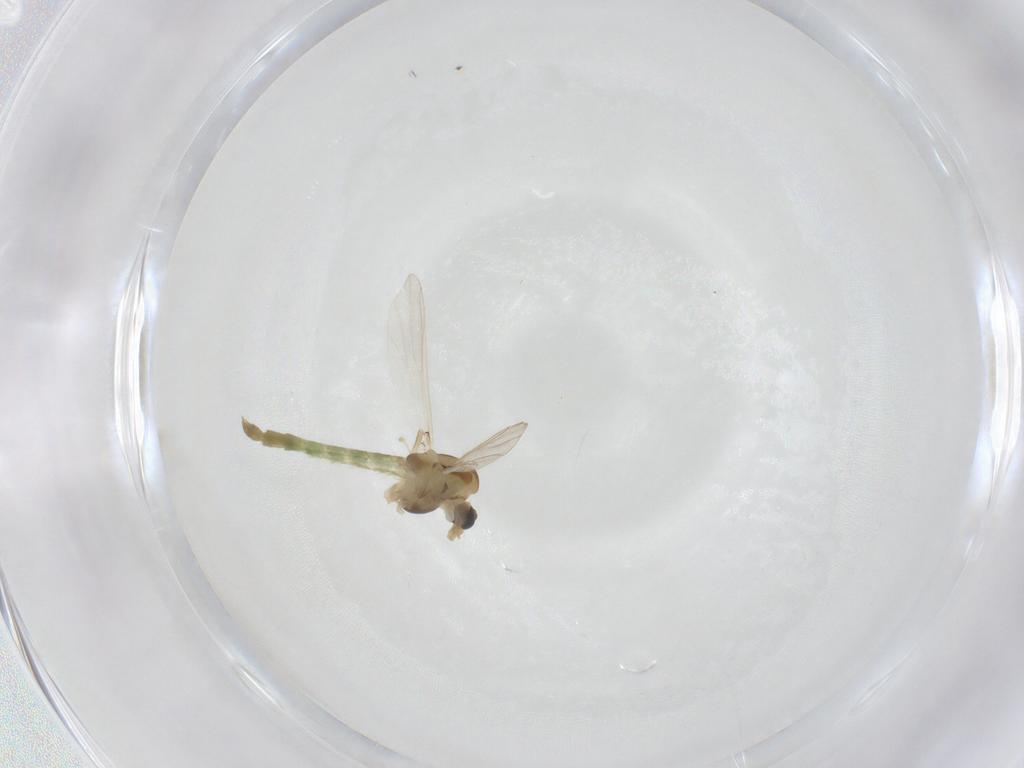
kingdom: Animalia
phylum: Arthropoda
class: Insecta
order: Diptera
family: Chironomidae
